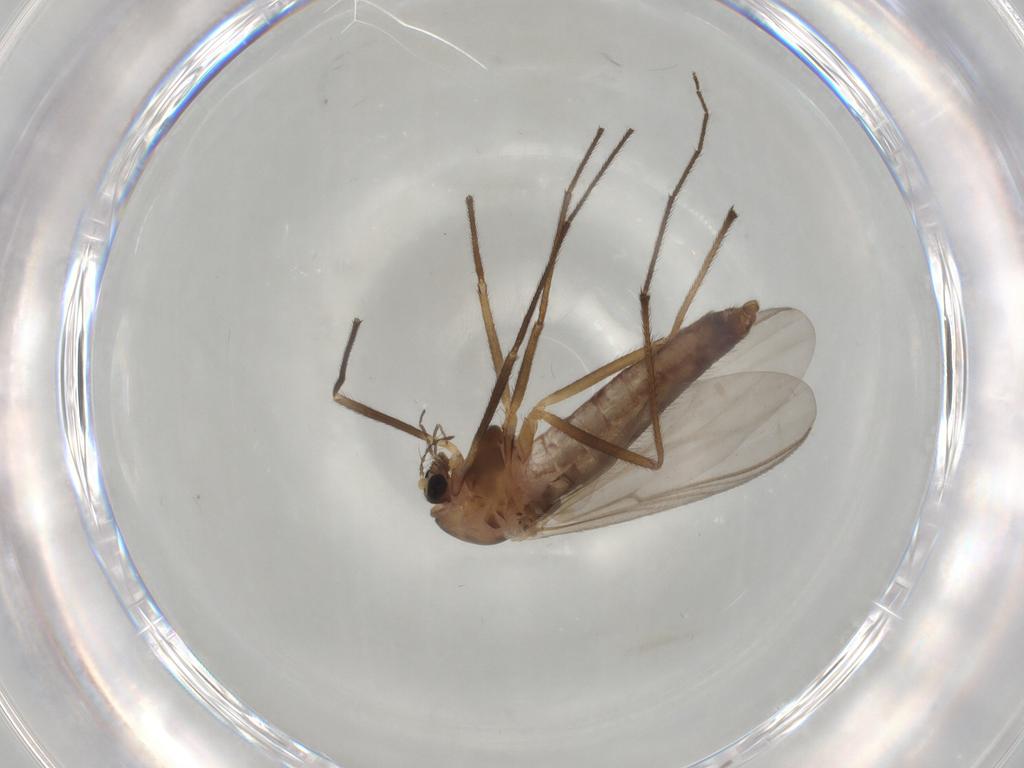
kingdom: Animalia
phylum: Arthropoda
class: Insecta
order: Diptera
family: Chironomidae
